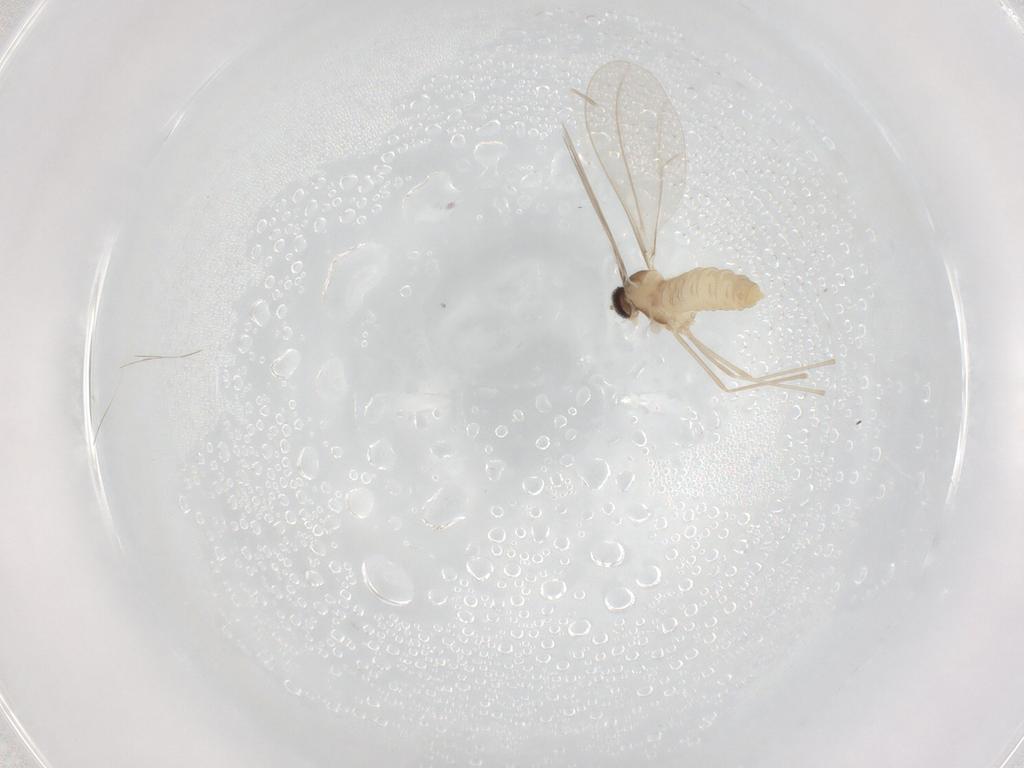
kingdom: Animalia
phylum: Arthropoda
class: Insecta
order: Diptera
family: Cecidomyiidae
